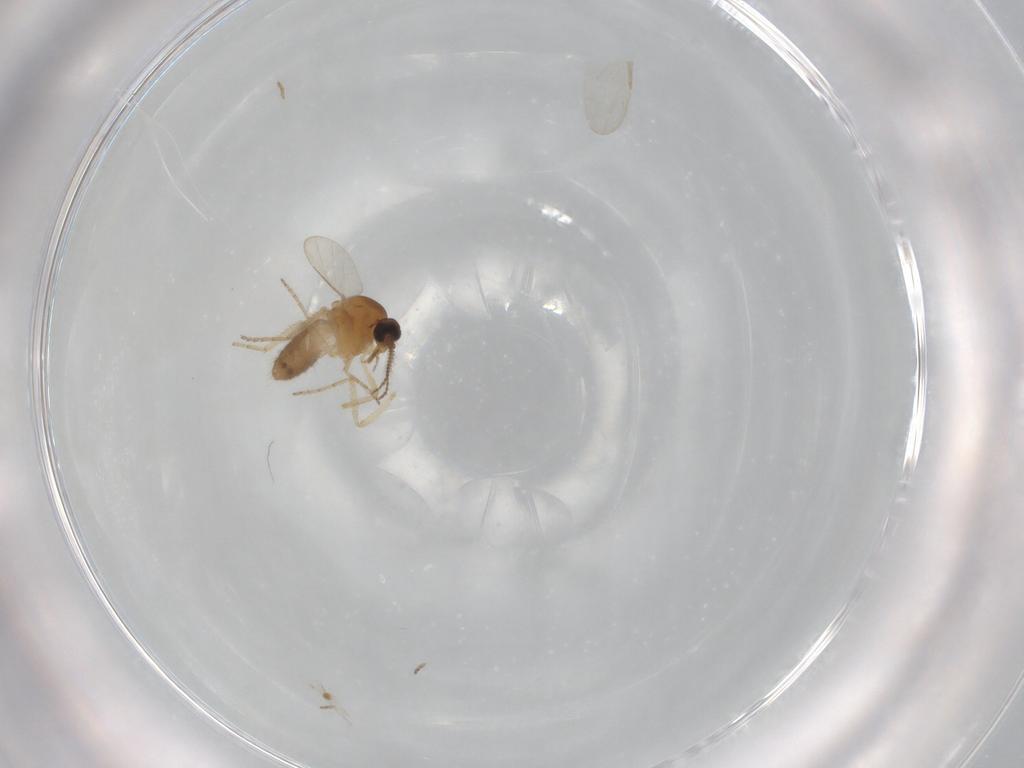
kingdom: Animalia
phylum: Arthropoda
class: Insecta
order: Diptera
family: Ceratopogonidae
